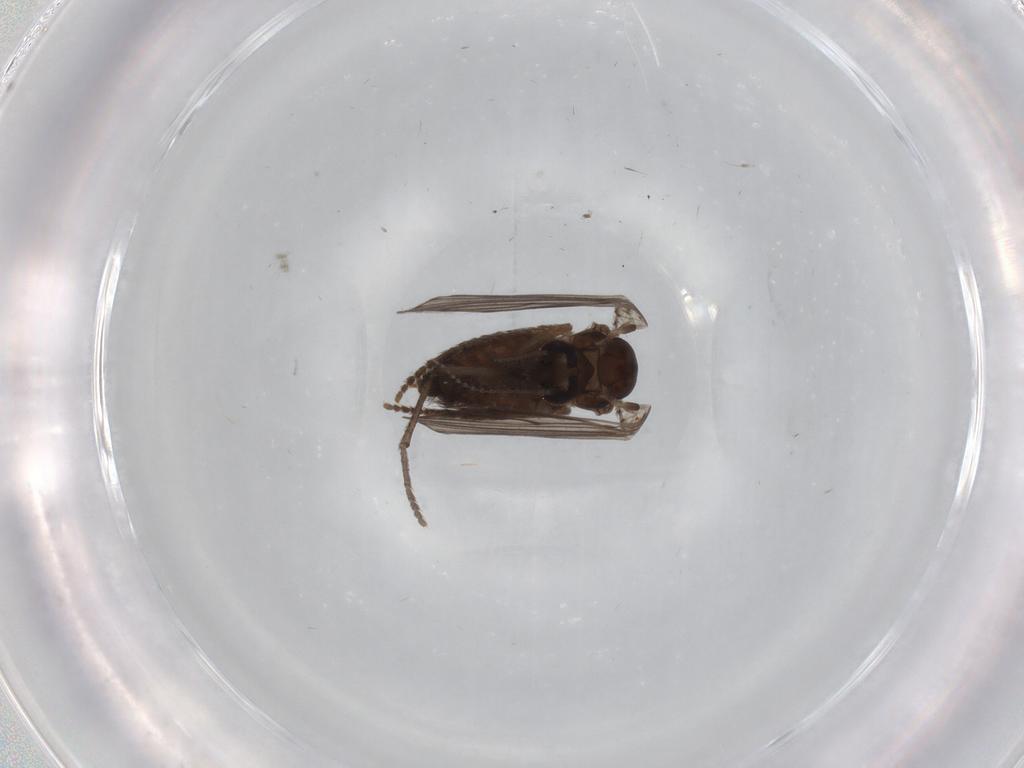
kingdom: Animalia
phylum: Arthropoda
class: Insecta
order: Diptera
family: Psychodidae
